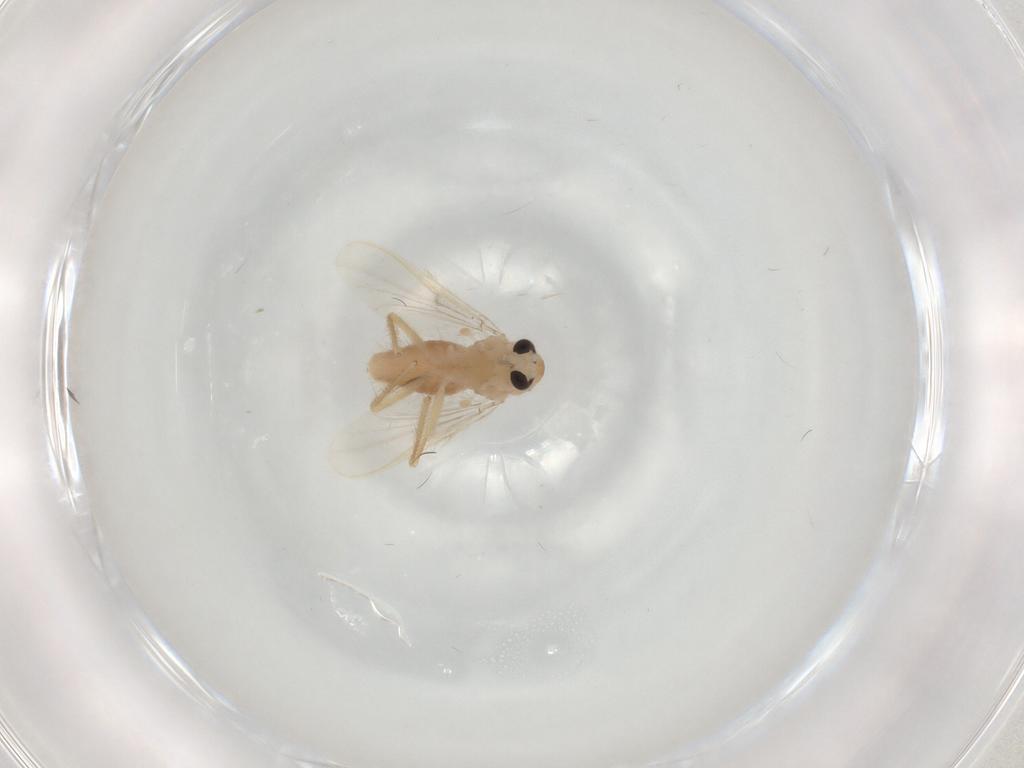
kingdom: Animalia
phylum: Arthropoda
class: Insecta
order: Diptera
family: Chironomidae
